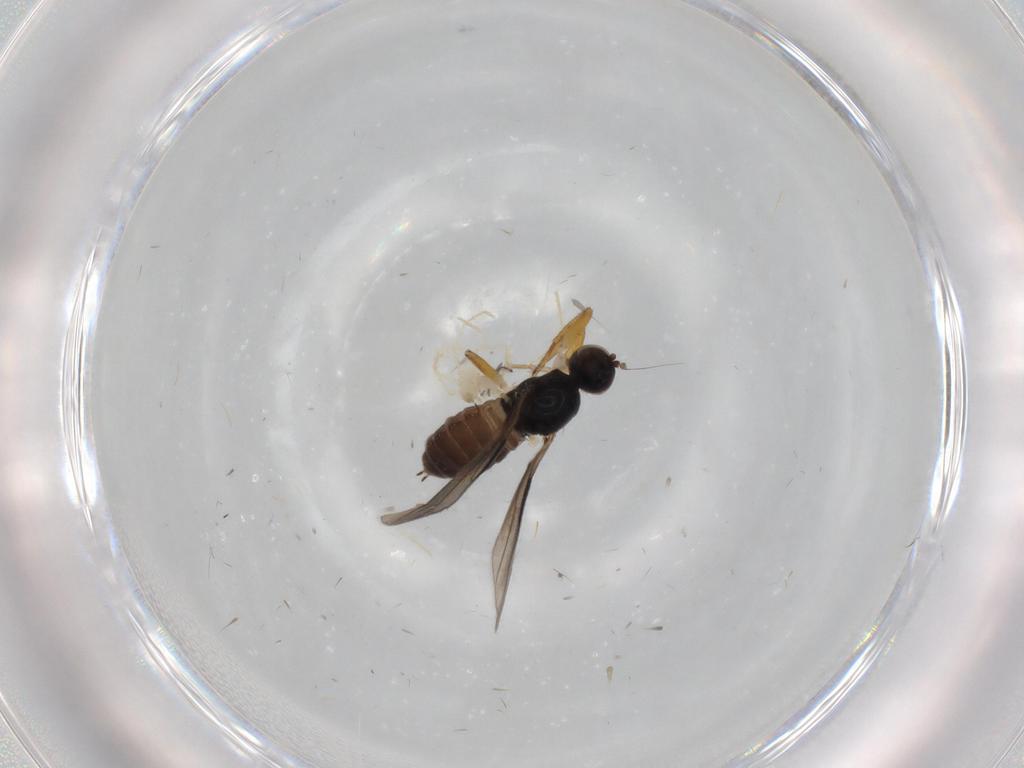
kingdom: Animalia
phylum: Arthropoda
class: Insecta
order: Diptera
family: Hybotidae
